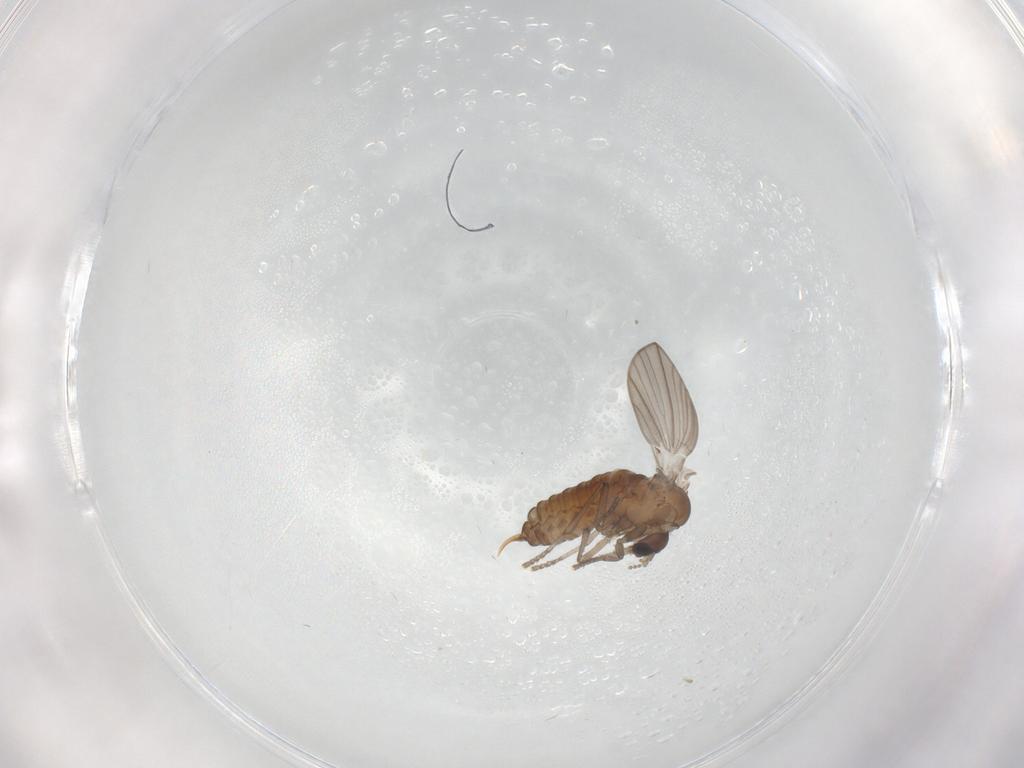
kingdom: Animalia
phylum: Arthropoda
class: Insecta
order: Diptera
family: Psychodidae
